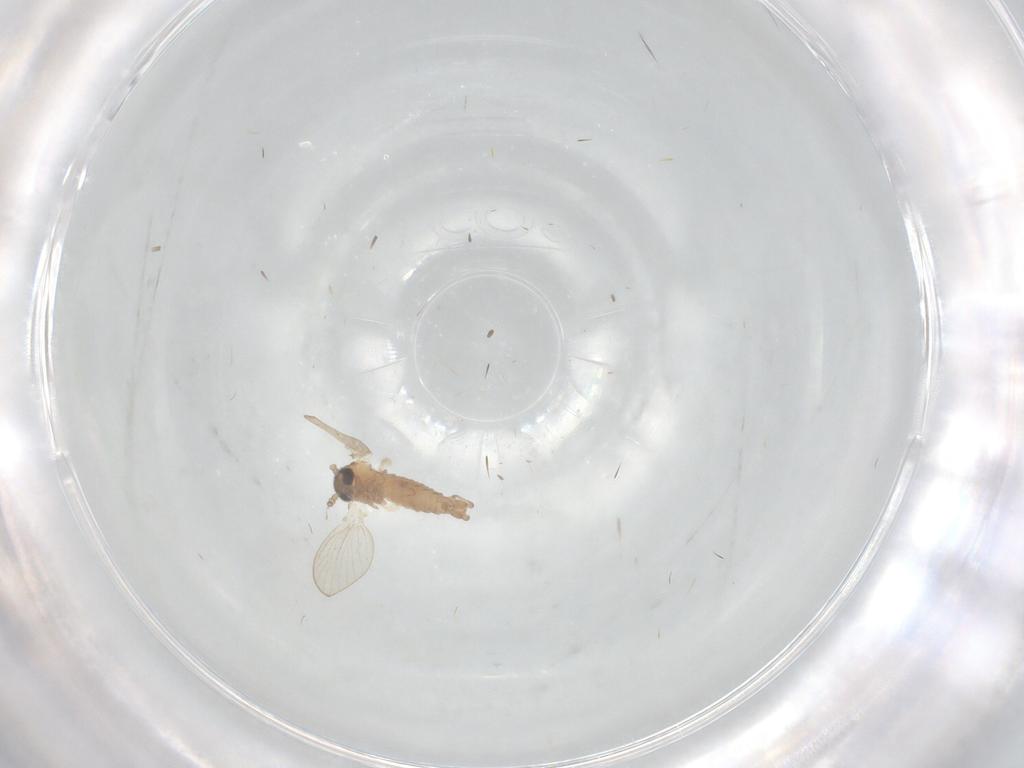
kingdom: Animalia
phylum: Arthropoda
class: Insecta
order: Diptera
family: Psychodidae
